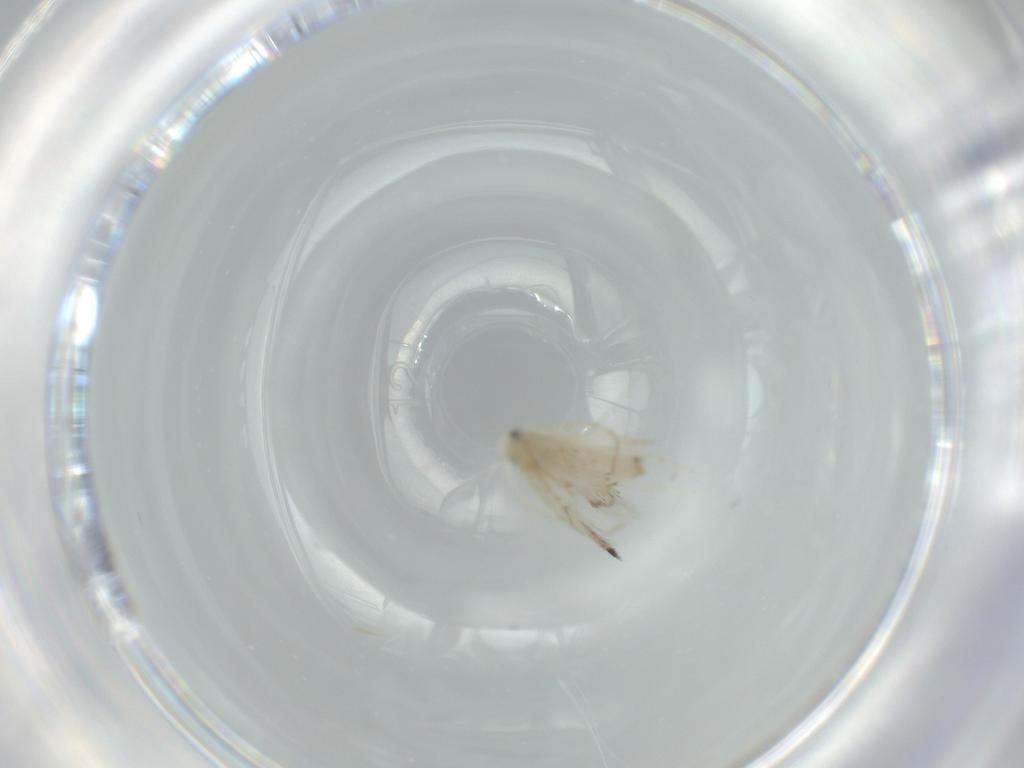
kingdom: Animalia
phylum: Arthropoda
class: Insecta
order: Lepidoptera
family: Gracillariidae
